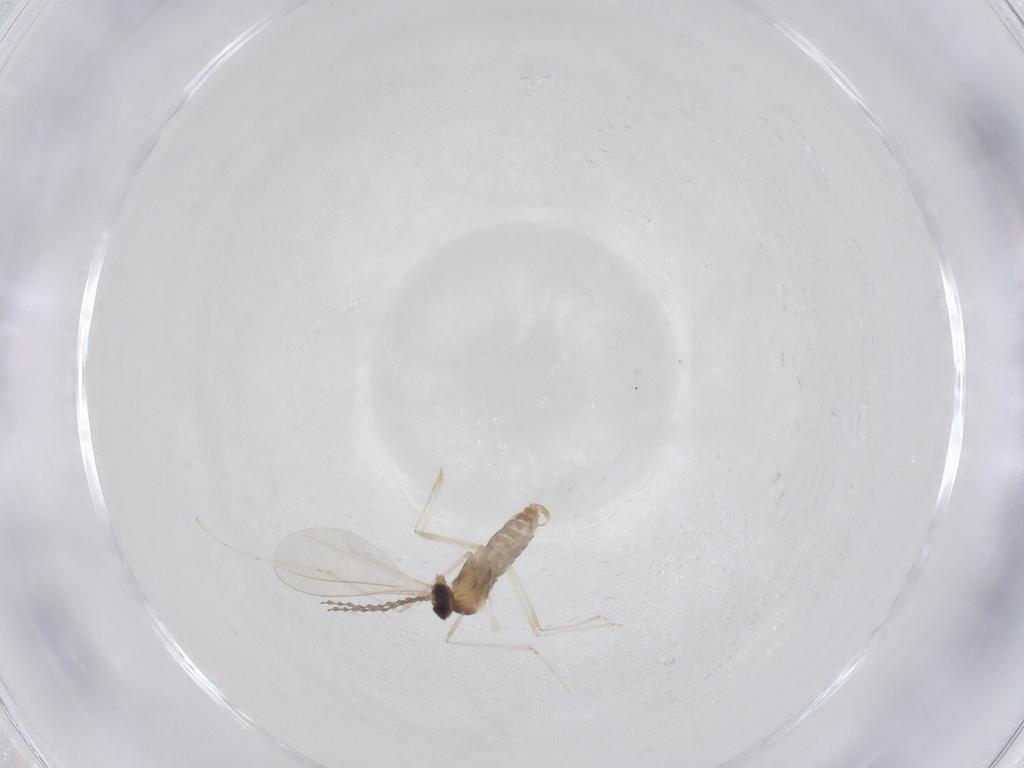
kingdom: Animalia
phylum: Arthropoda
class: Insecta
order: Diptera
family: Cecidomyiidae
